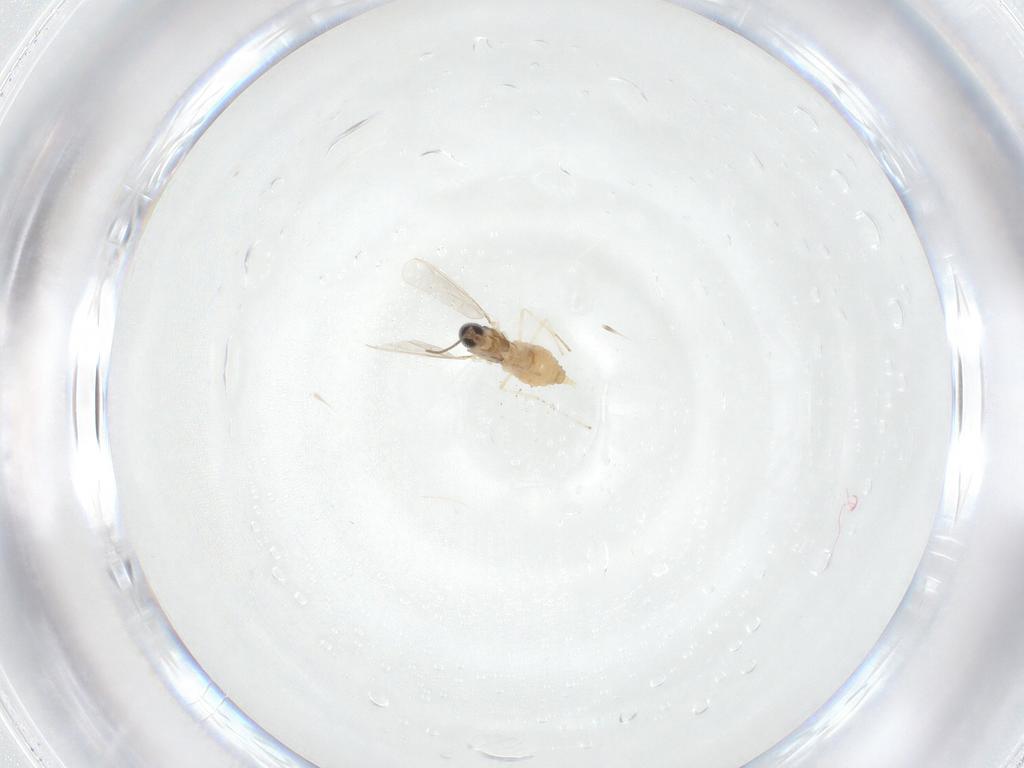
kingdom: Animalia
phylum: Arthropoda
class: Insecta
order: Diptera
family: Cecidomyiidae
